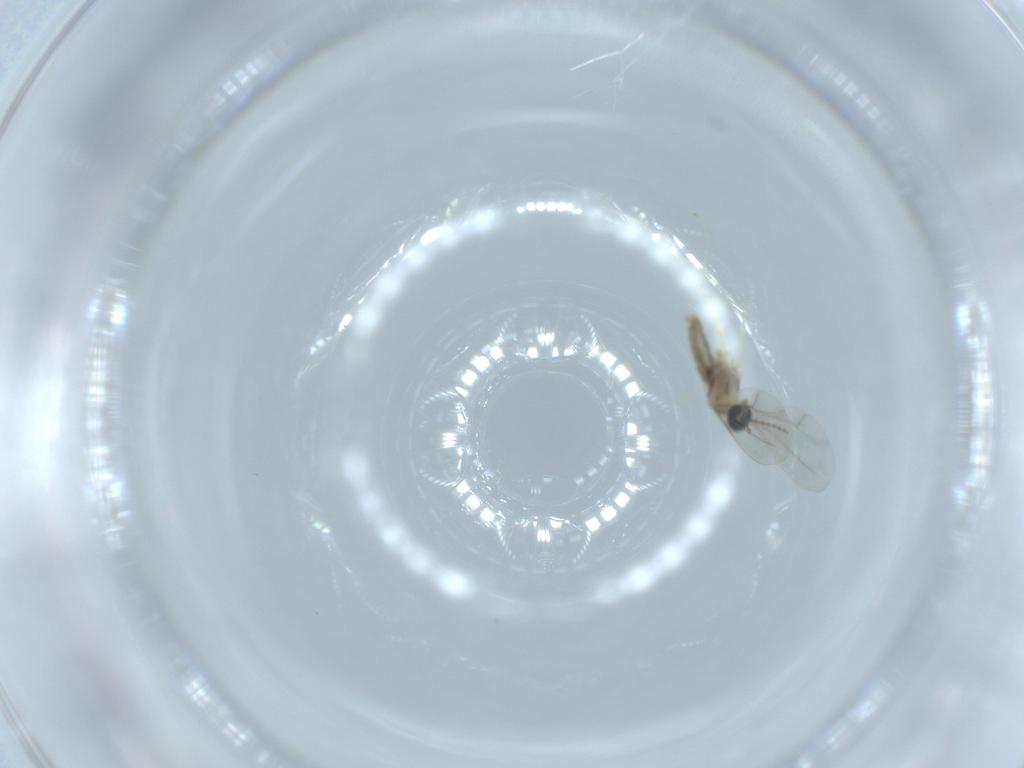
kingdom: Animalia
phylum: Arthropoda
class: Insecta
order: Diptera
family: Cecidomyiidae
